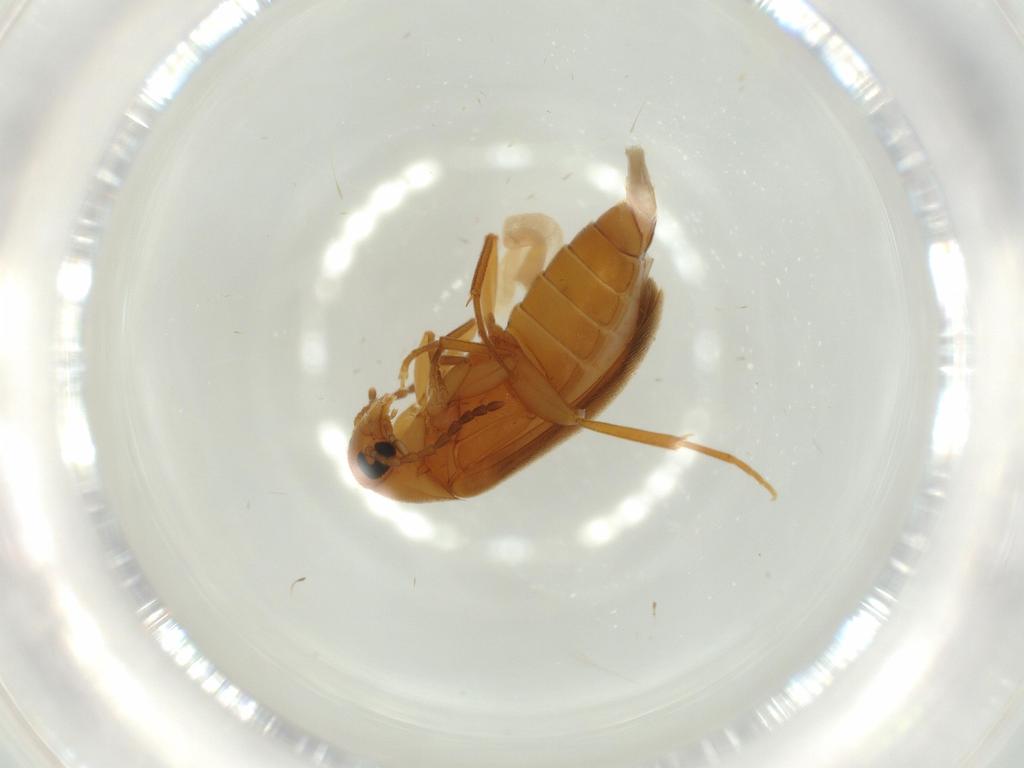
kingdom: Animalia
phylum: Arthropoda
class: Insecta
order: Coleoptera
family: Scraptiidae
